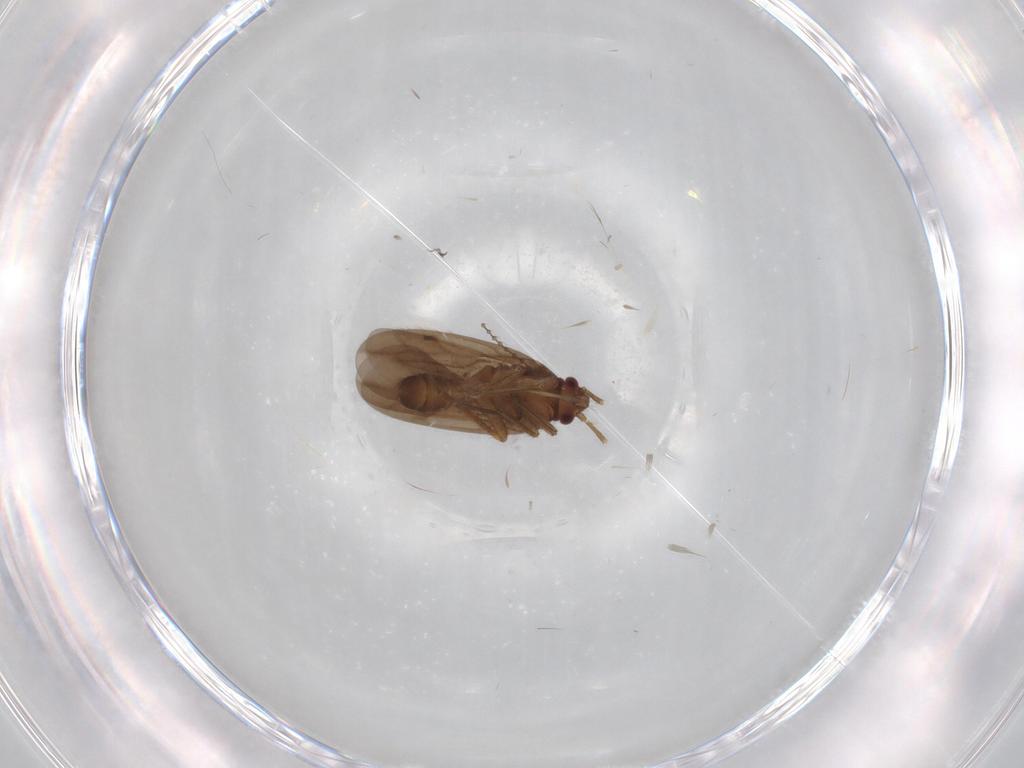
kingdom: Animalia
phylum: Arthropoda
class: Insecta
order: Hemiptera
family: Ceratocombidae
